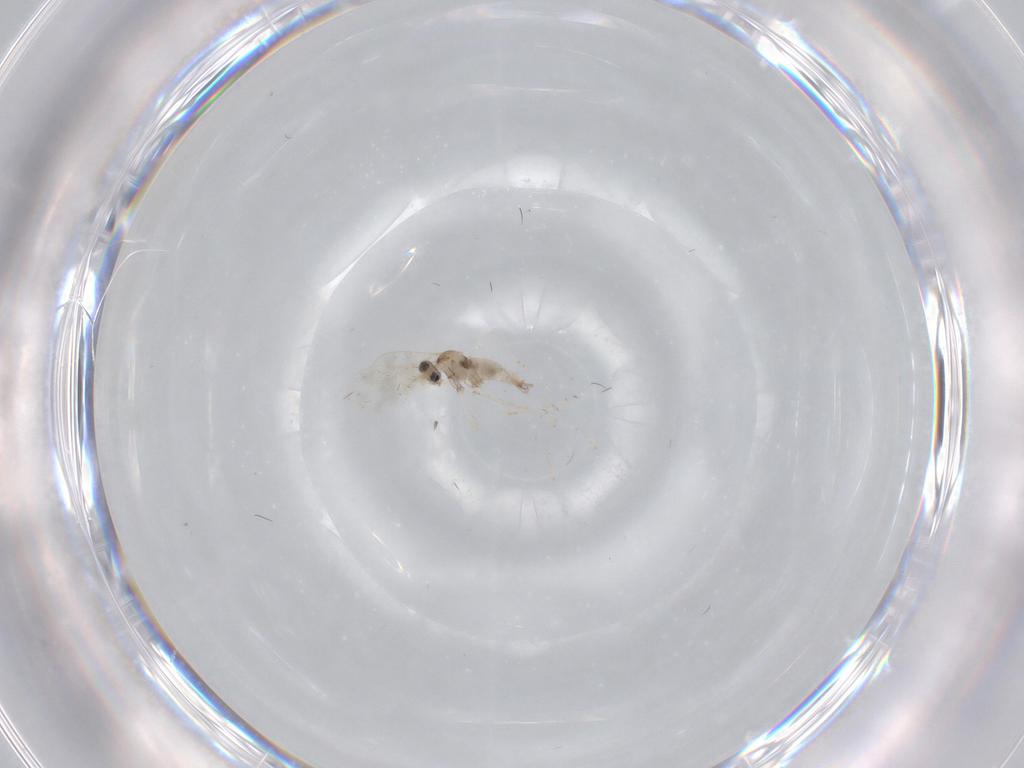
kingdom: Animalia
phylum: Arthropoda
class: Insecta
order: Diptera
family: Cecidomyiidae
